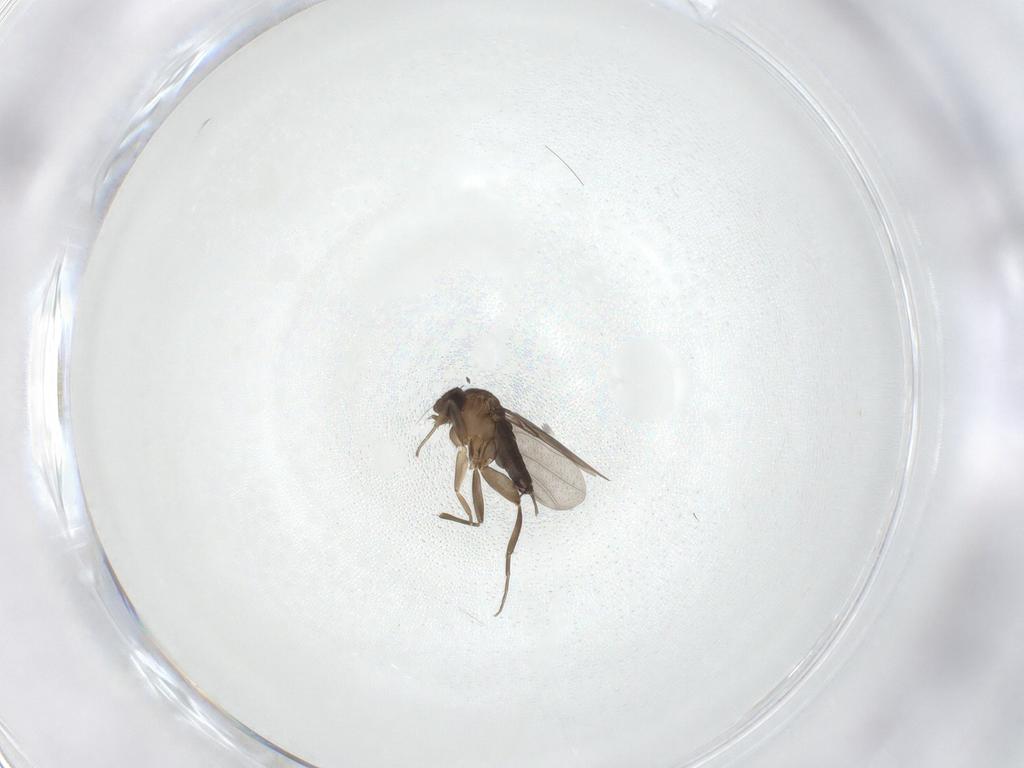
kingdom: Animalia
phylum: Arthropoda
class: Insecta
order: Diptera
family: Phoridae
